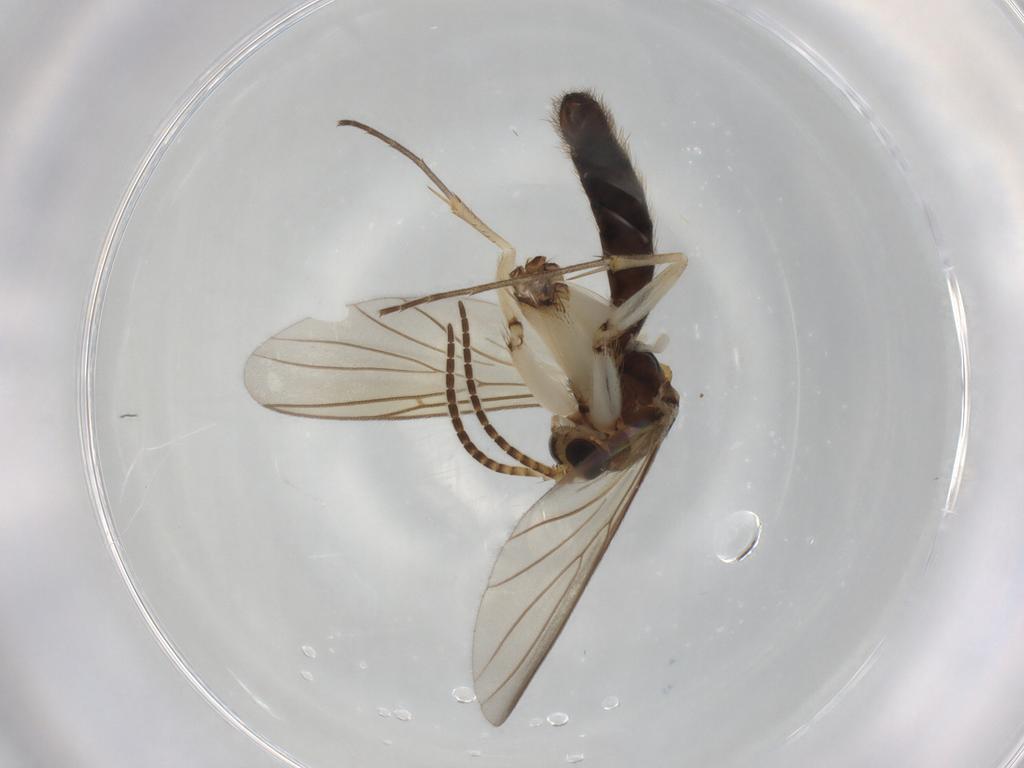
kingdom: Animalia
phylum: Arthropoda
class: Insecta
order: Diptera
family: Mycetophilidae
